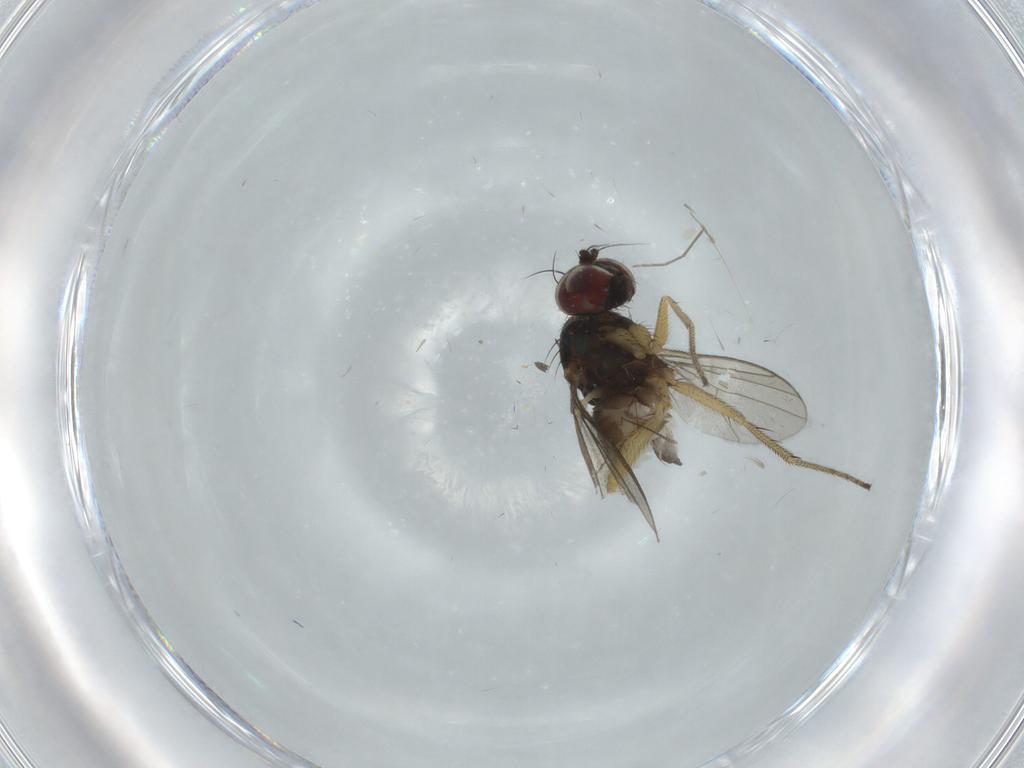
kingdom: Animalia
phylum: Arthropoda
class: Insecta
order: Diptera
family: Dolichopodidae
